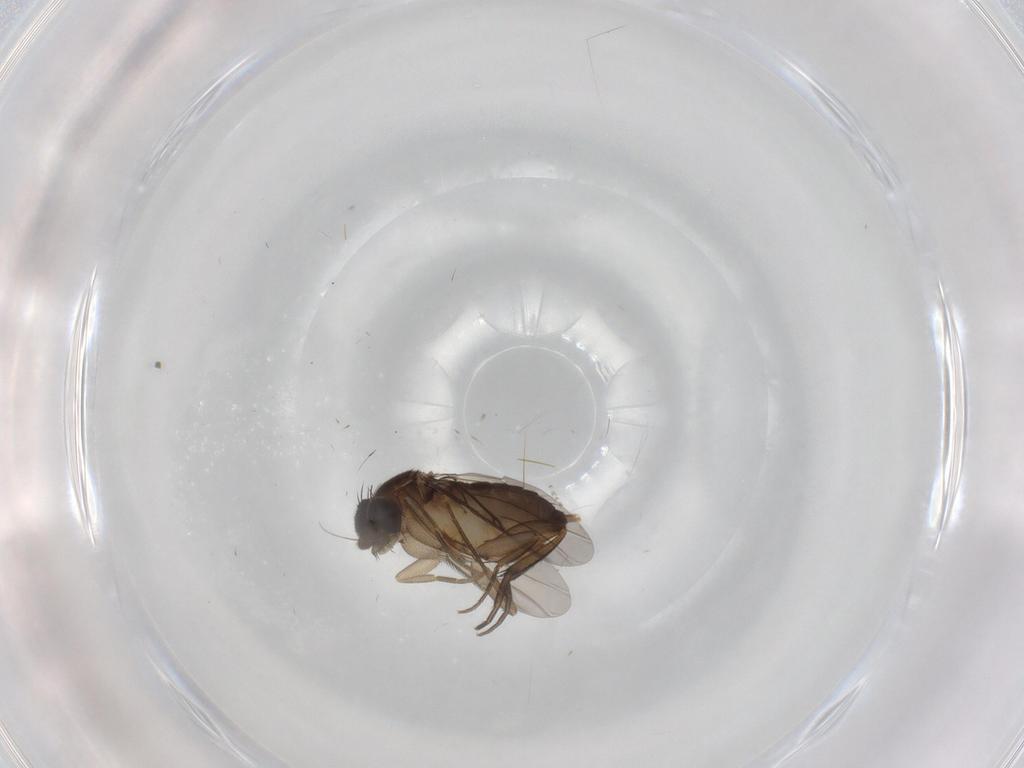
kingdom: Animalia
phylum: Arthropoda
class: Insecta
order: Diptera
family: Phoridae
